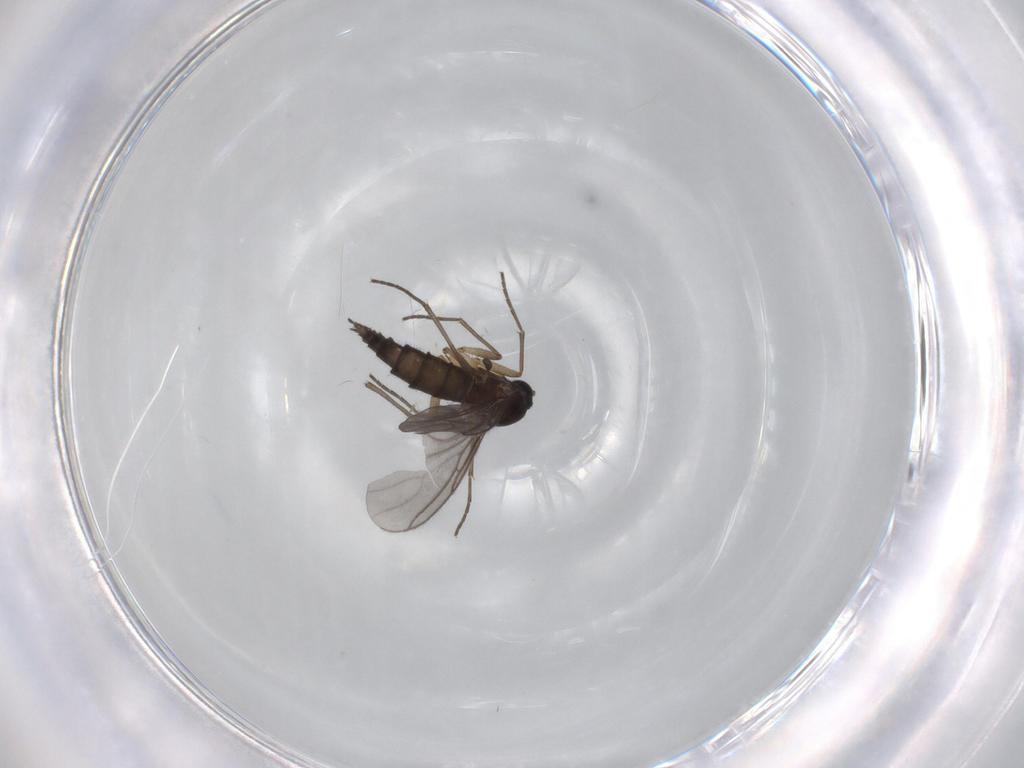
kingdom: Animalia
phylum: Arthropoda
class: Insecta
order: Diptera
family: Sciaridae
